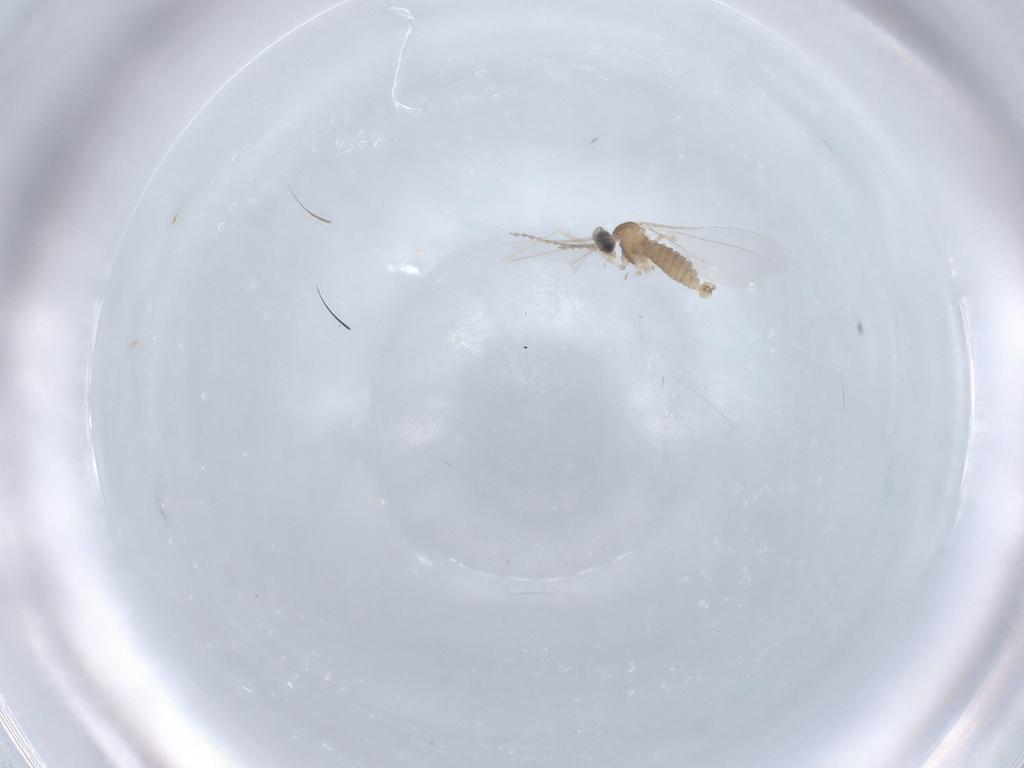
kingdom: Animalia
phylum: Arthropoda
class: Insecta
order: Diptera
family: Cecidomyiidae
